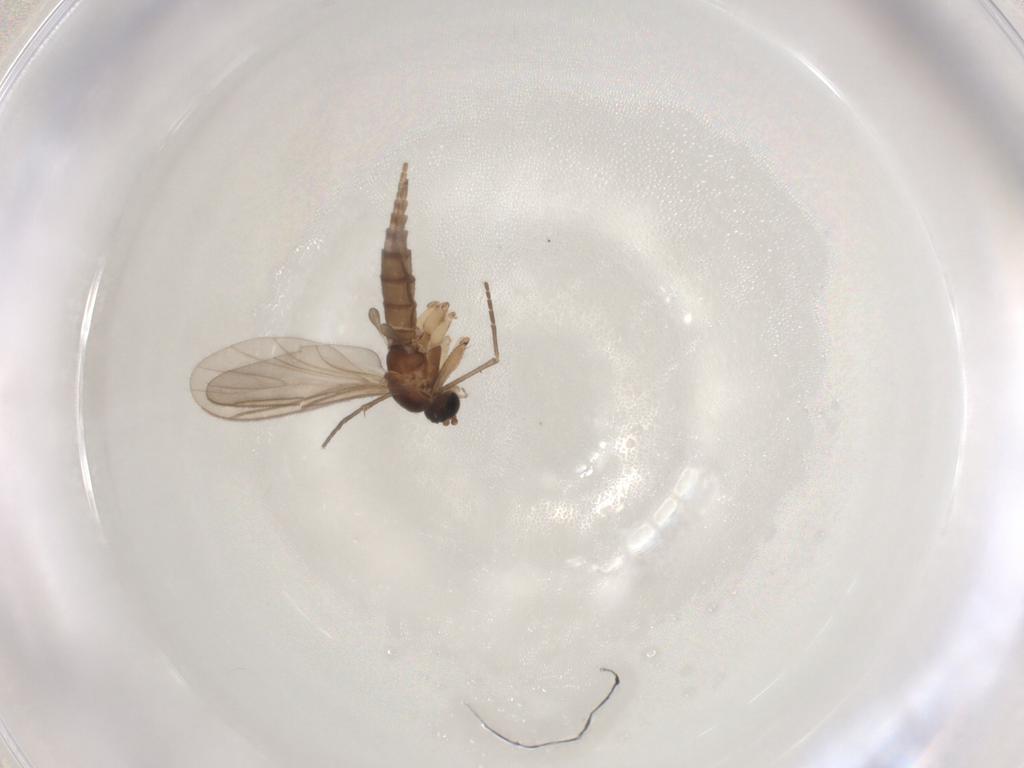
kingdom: Animalia
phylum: Arthropoda
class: Insecta
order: Diptera
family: Sciaridae
